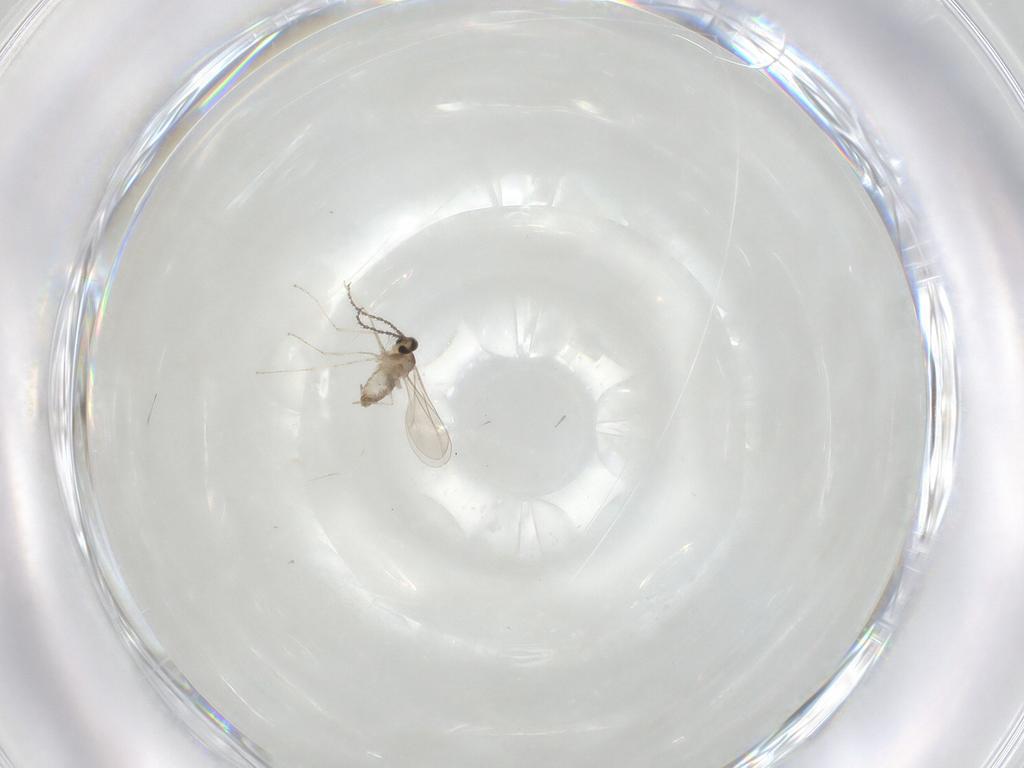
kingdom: Animalia
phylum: Arthropoda
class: Insecta
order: Diptera
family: Cecidomyiidae
